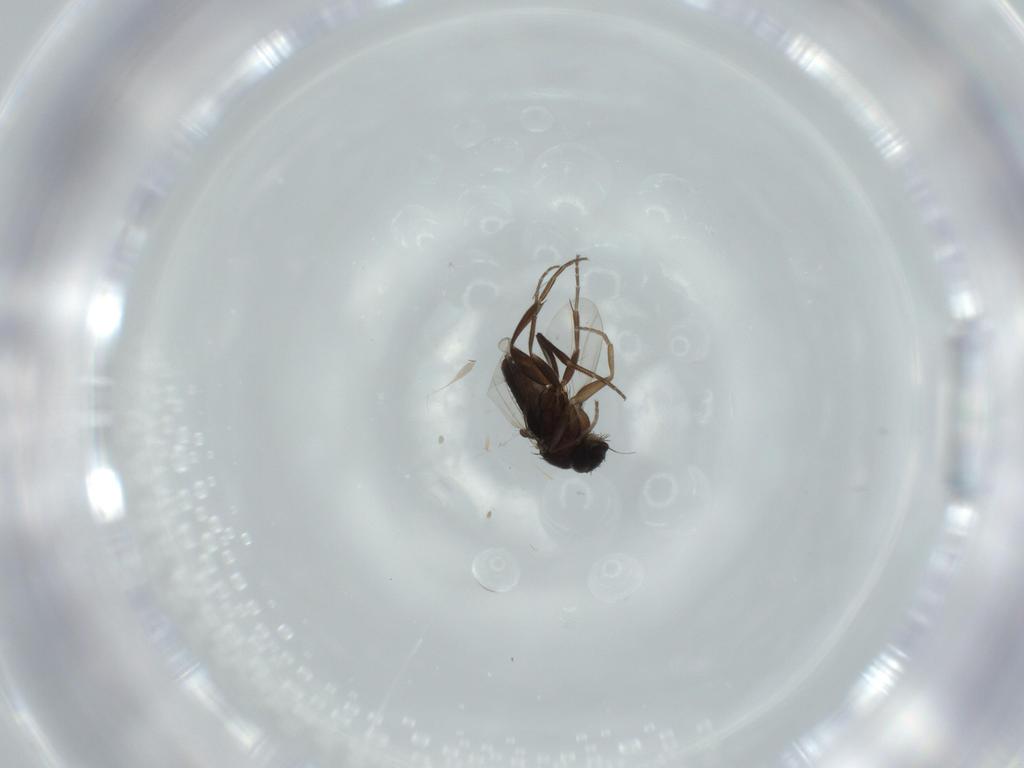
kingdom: Animalia
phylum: Arthropoda
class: Insecta
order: Diptera
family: Phoridae
